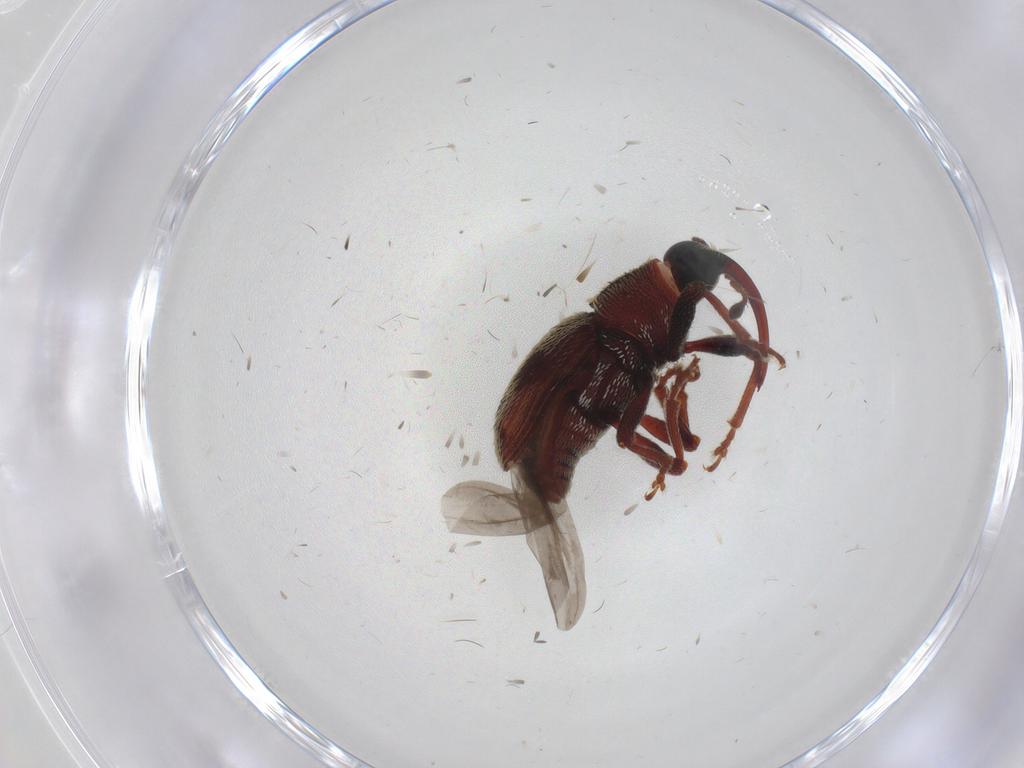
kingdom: Animalia
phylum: Arthropoda
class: Insecta
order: Coleoptera
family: Curculionidae
